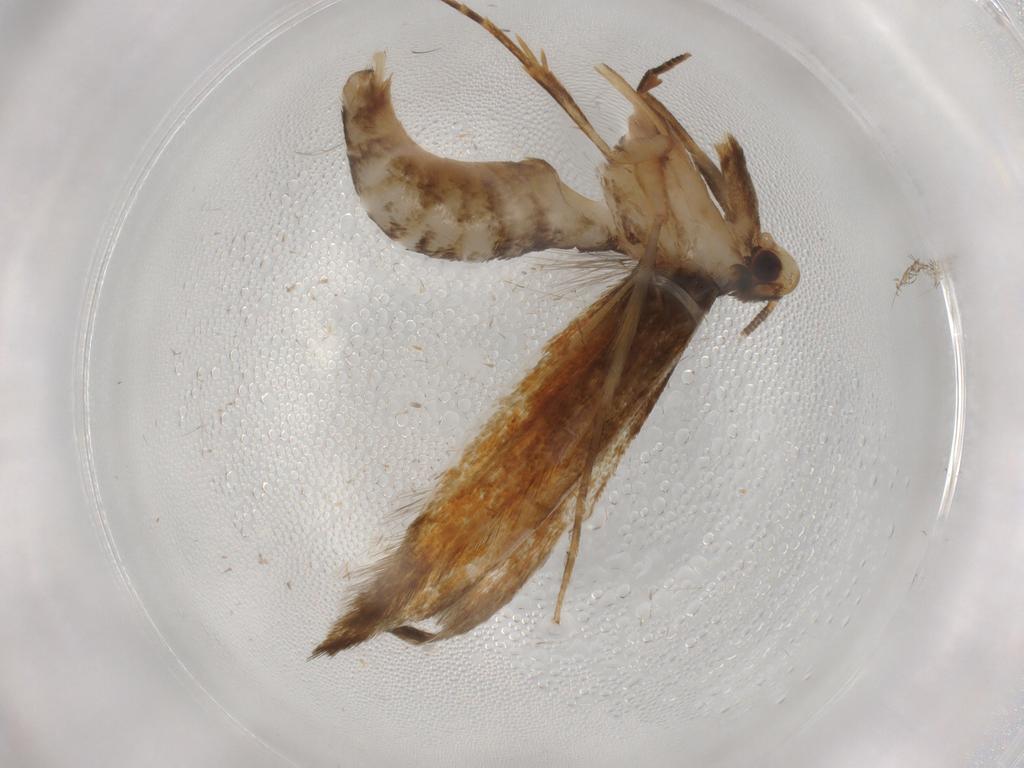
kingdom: Animalia
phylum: Arthropoda
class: Insecta
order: Lepidoptera
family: Tineidae
